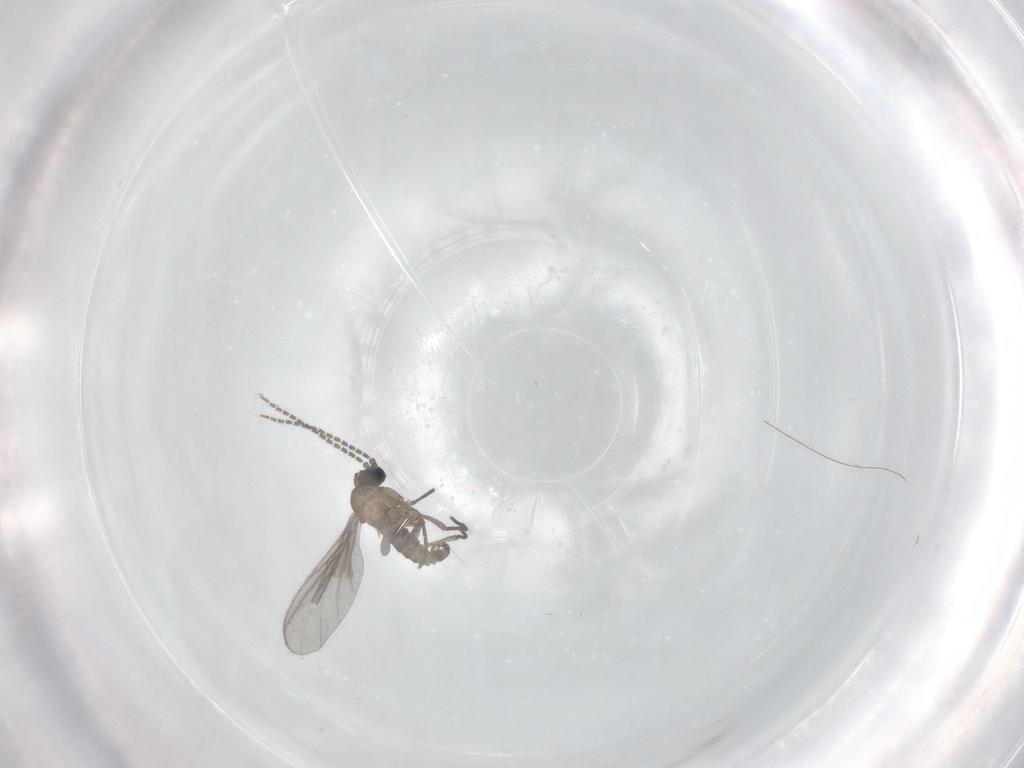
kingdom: Animalia
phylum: Arthropoda
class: Insecta
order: Diptera
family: Sciaridae
